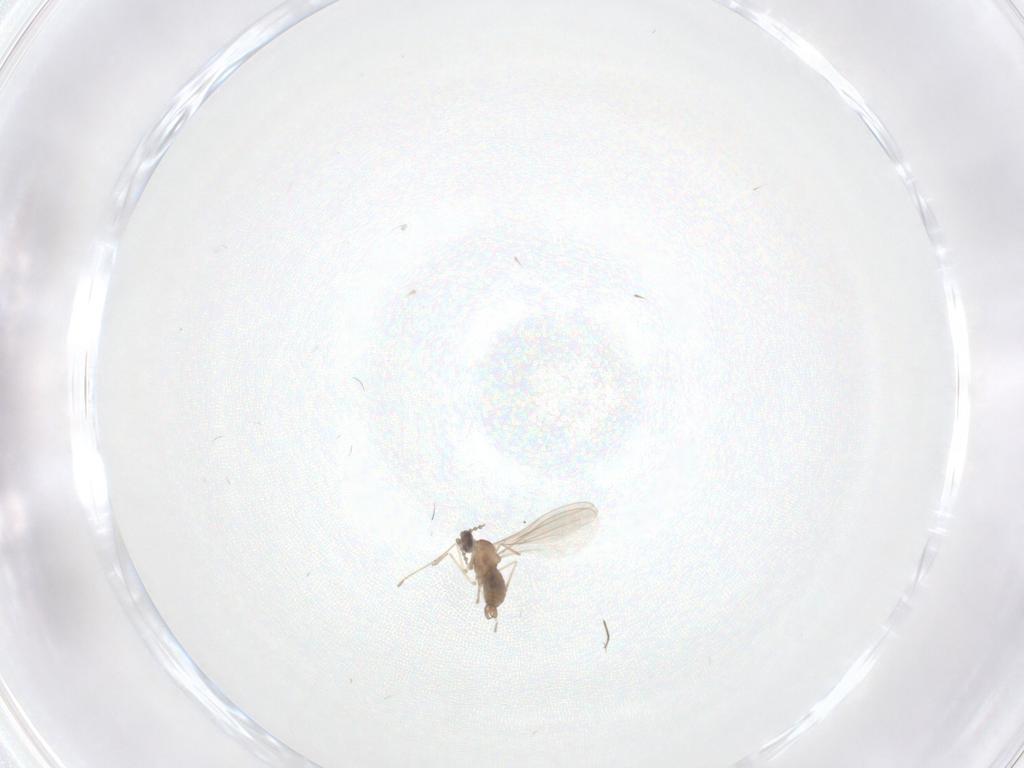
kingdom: Animalia
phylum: Arthropoda
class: Insecta
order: Diptera
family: Cecidomyiidae
